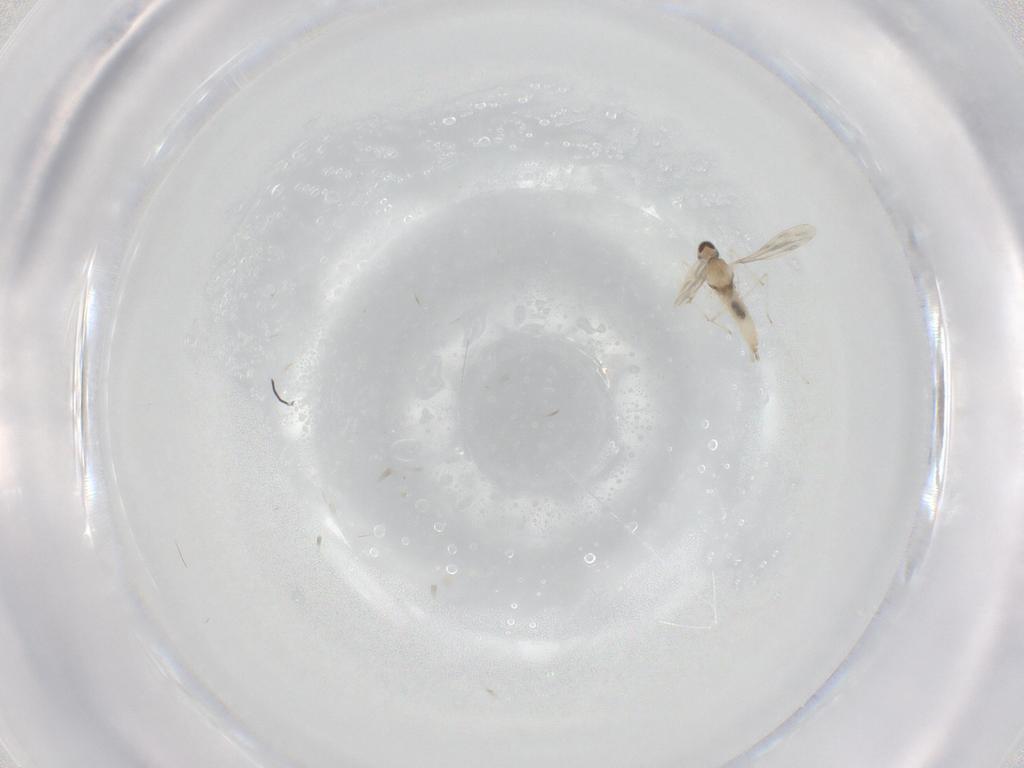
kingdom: Animalia
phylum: Arthropoda
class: Insecta
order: Diptera
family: Cecidomyiidae
